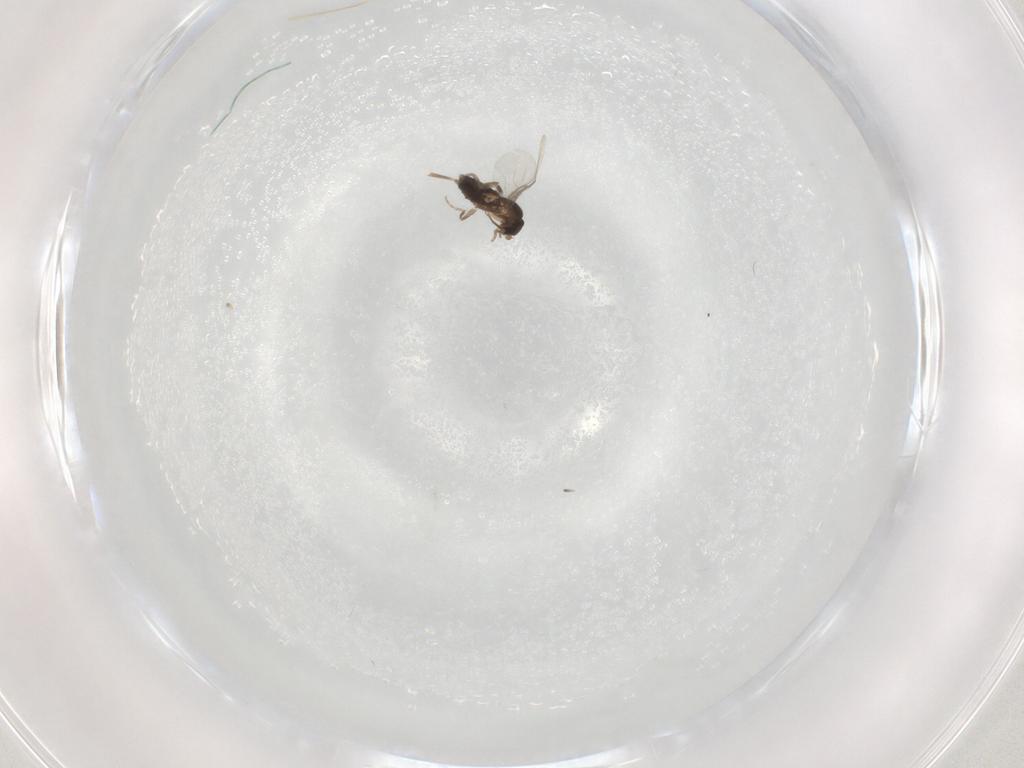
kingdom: Animalia
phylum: Arthropoda
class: Insecta
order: Diptera
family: Phoridae
